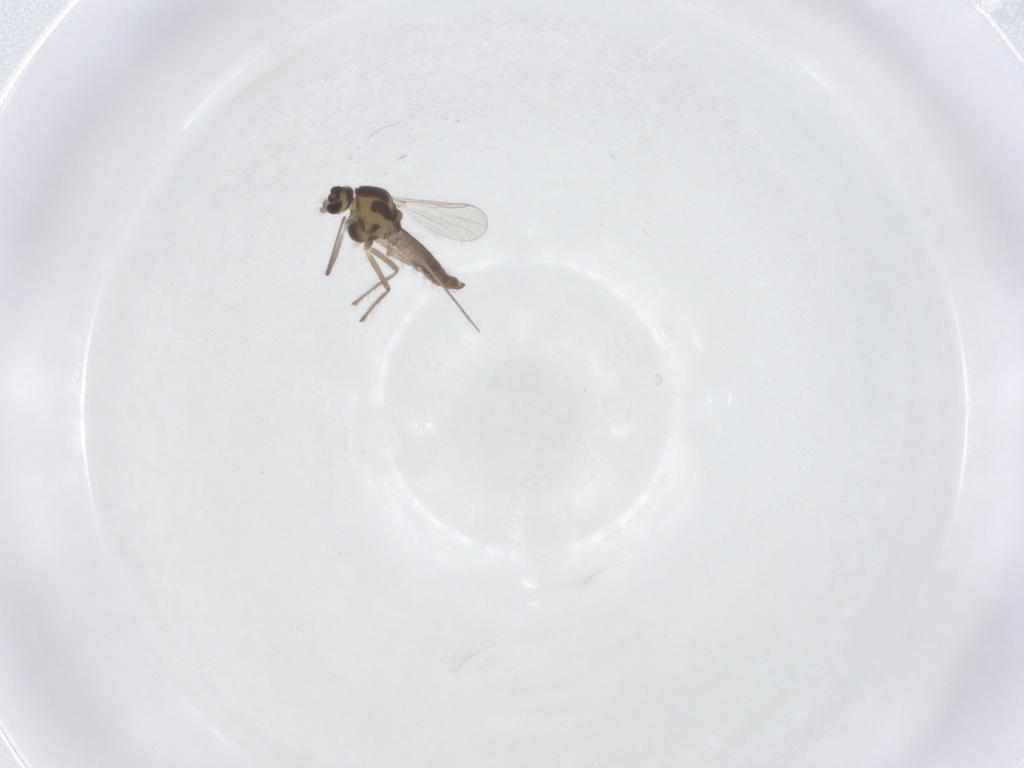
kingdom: Animalia
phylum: Arthropoda
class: Insecta
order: Diptera
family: Chironomidae
